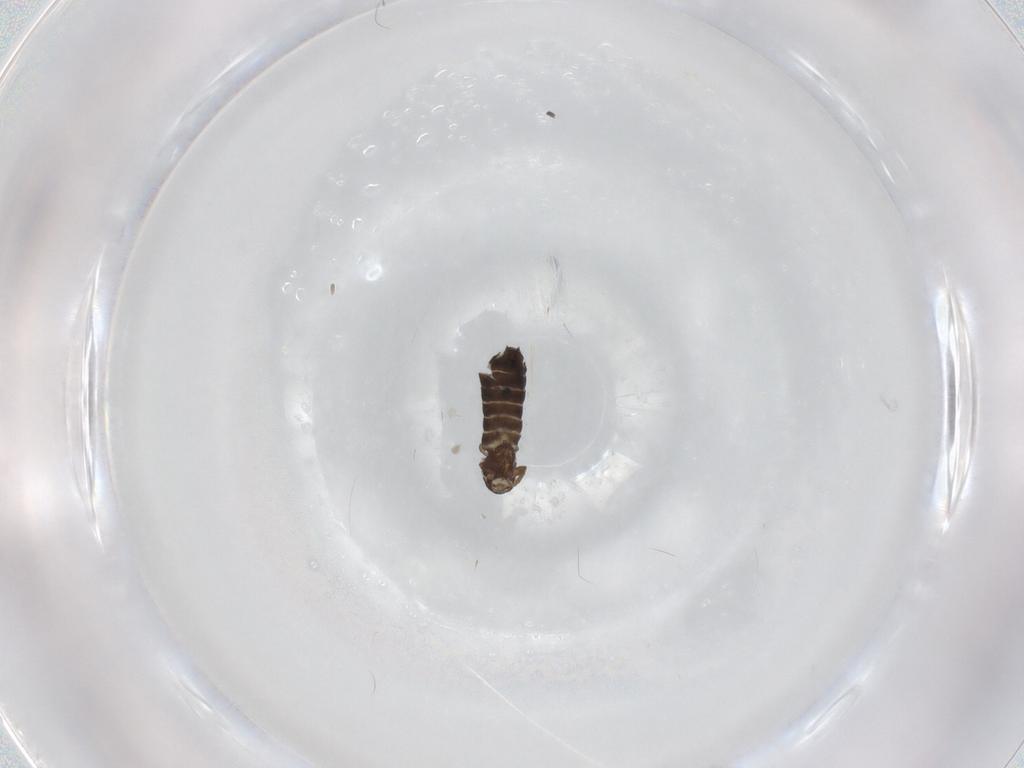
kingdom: Animalia
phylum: Arthropoda
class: Insecta
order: Diptera
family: Scatopsidae
